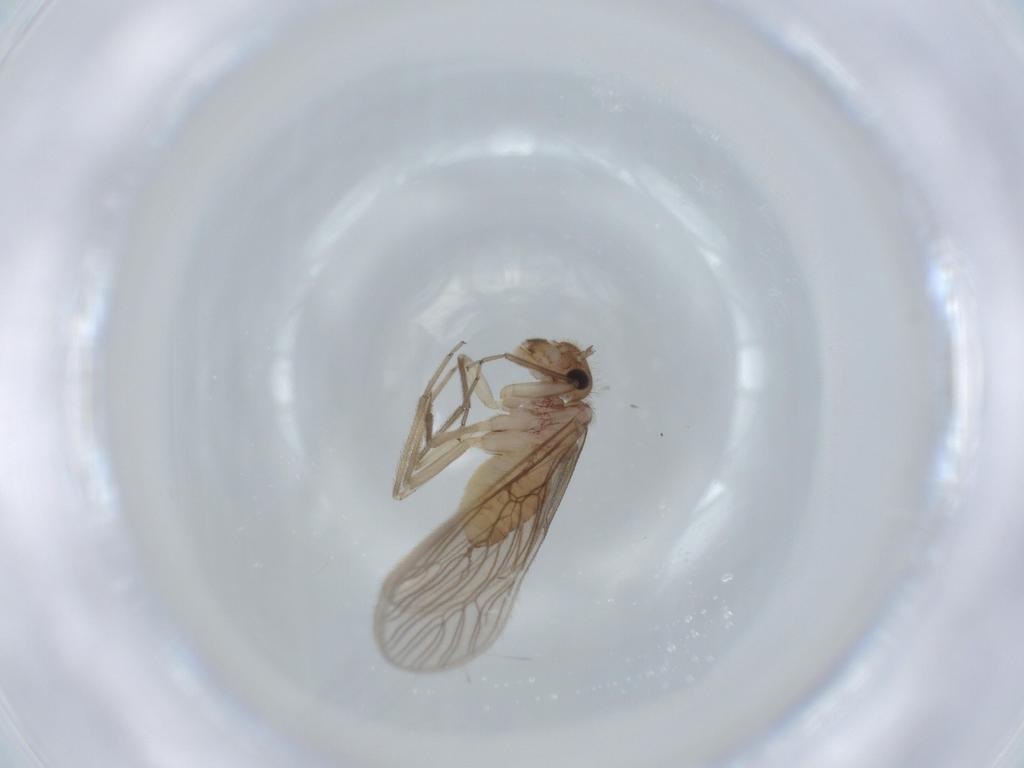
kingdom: Animalia
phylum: Arthropoda
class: Insecta
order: Psocodea
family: Cladiopsocidae
